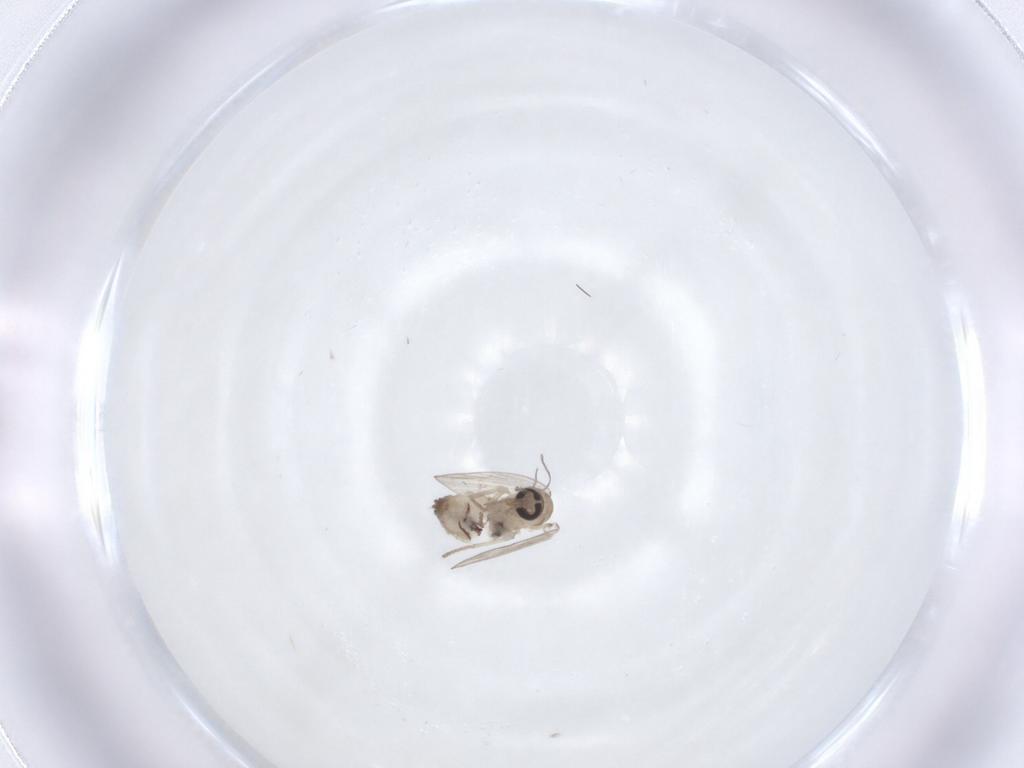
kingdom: Animalia
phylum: Arthropoda
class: Insecta
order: Diptera
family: Psychodidae
